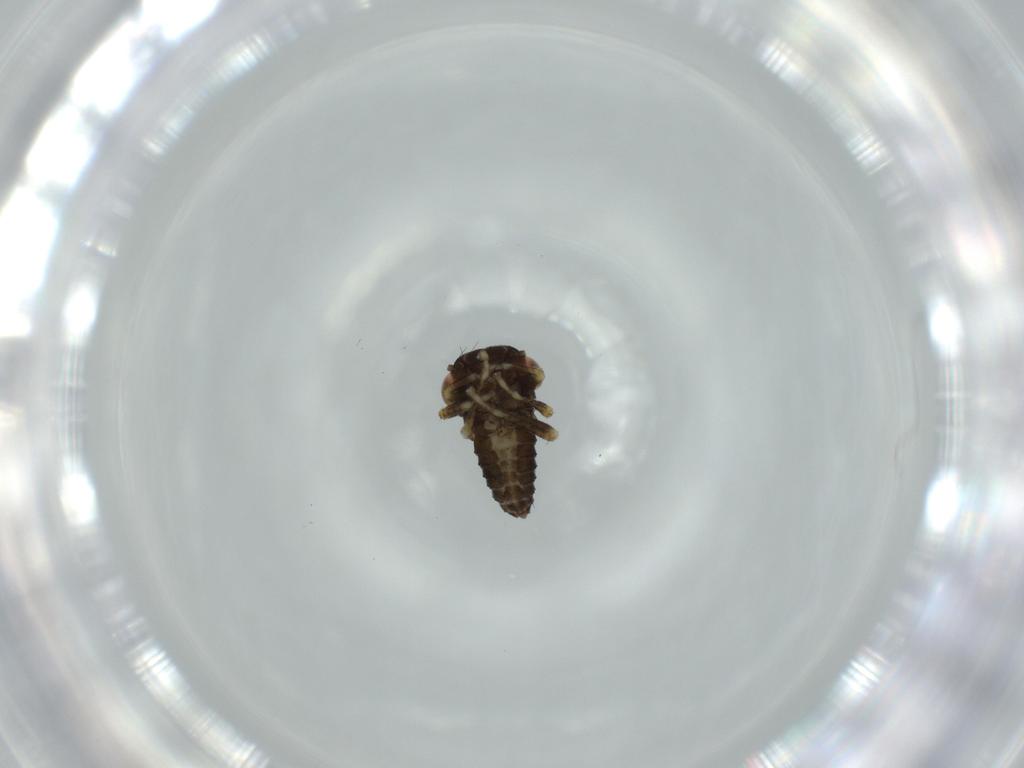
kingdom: Animalia
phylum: Arthropoda
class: Insecta
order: Diptera
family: Chironomidae
